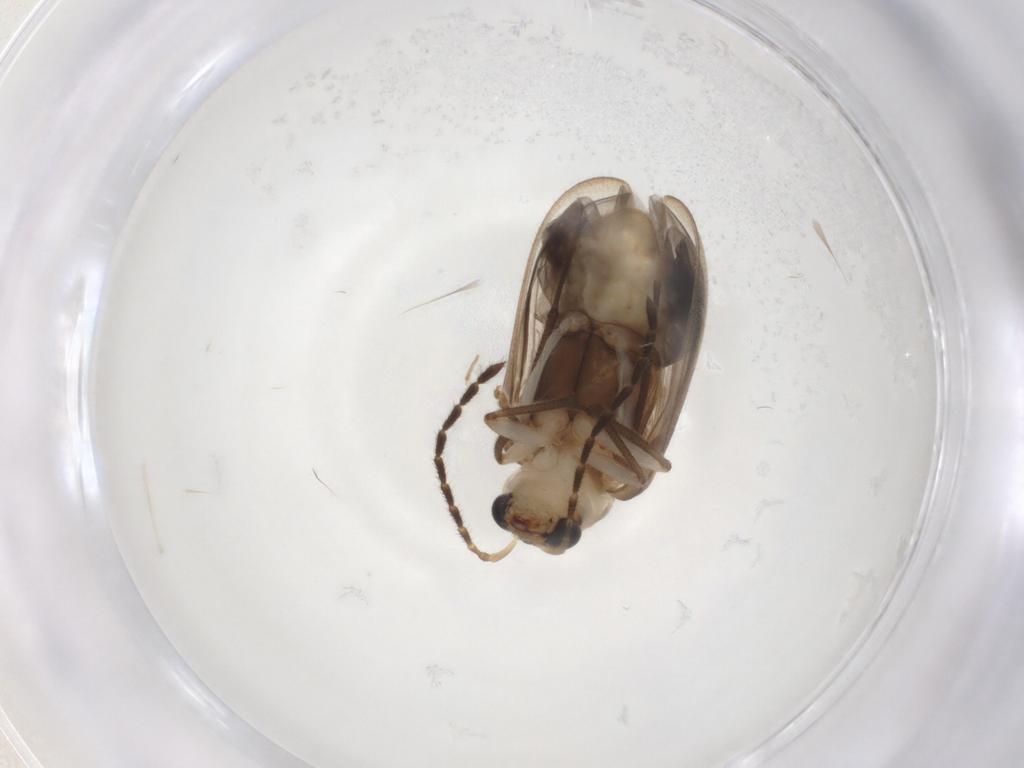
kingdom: Animalia
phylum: Arthropoda
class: Insecta
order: Coleoptera
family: Chrysomelidae
